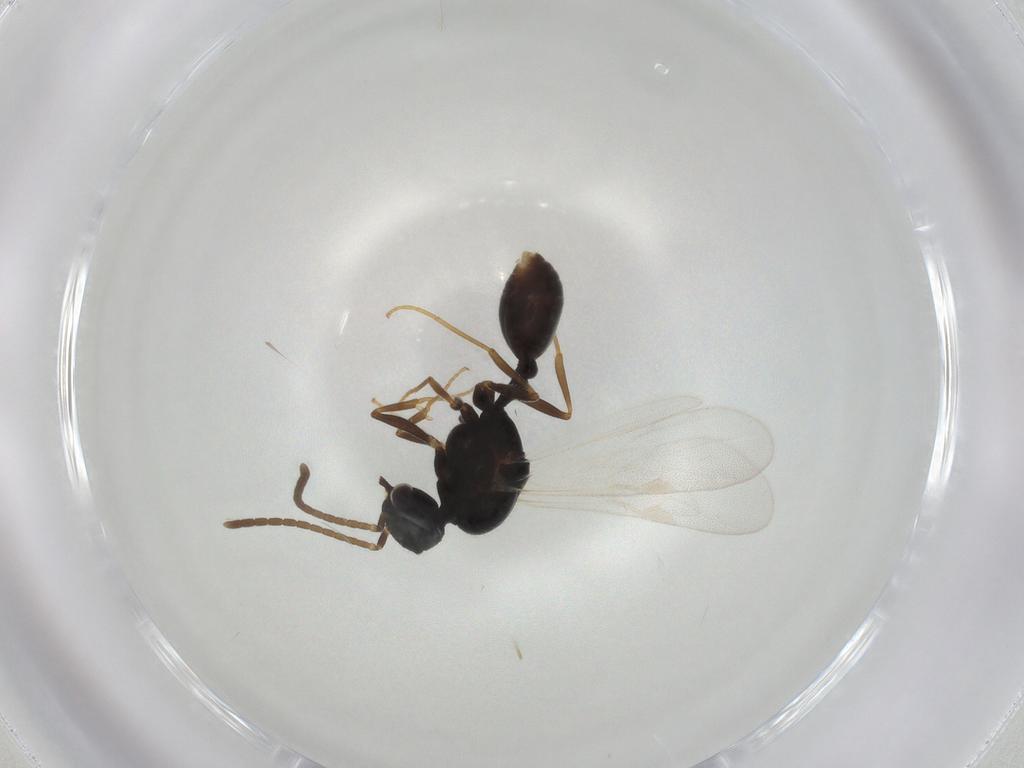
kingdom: Animalia
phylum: Arthropoda
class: Insecta
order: Hymenoptera
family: Formicidae
